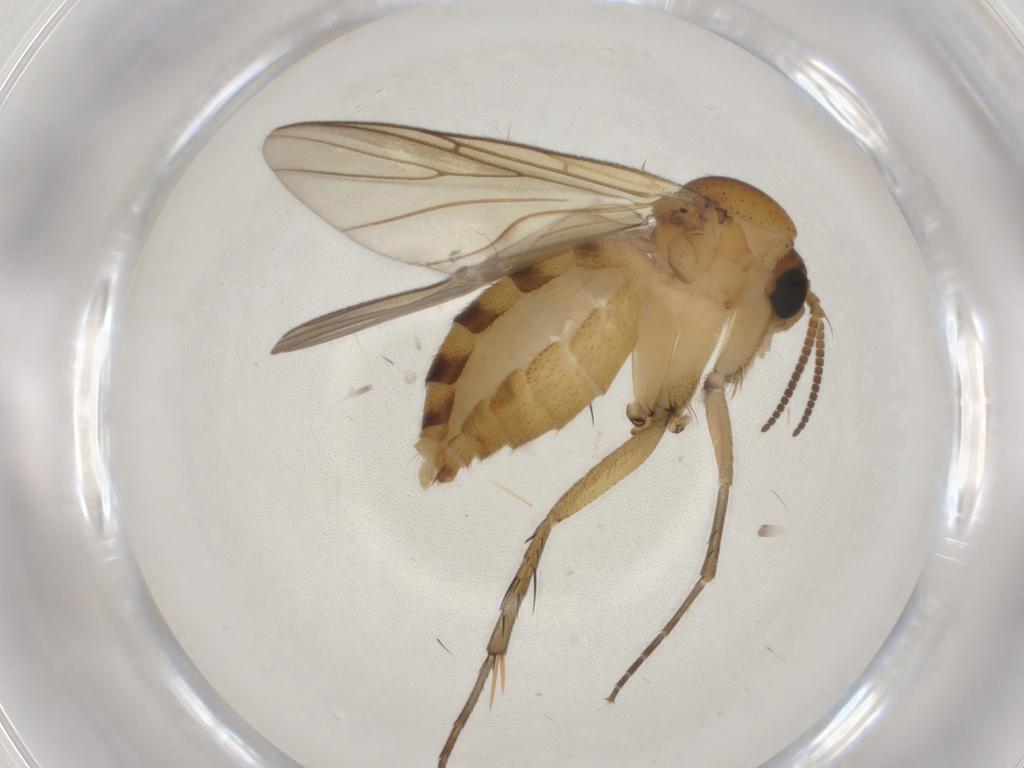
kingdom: Animalia
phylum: Arthropoda
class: Insecta
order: Diptera
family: Mycetophilidae
